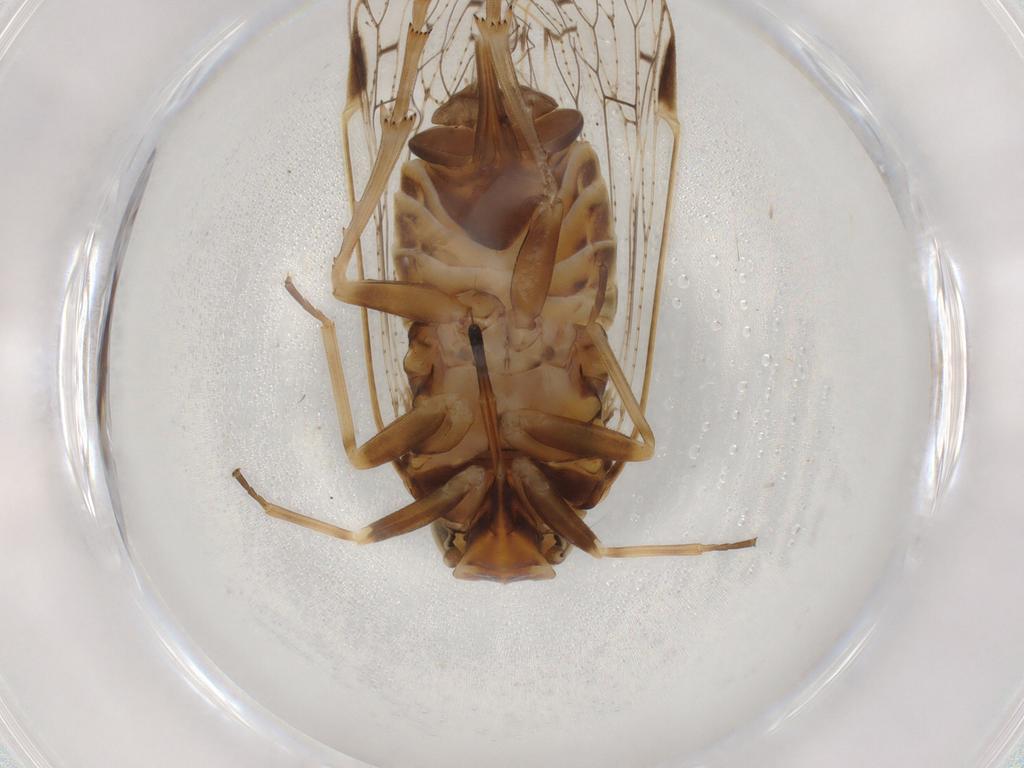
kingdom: Animalia
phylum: Arthropoda
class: Insecta
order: Hemiptera
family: Cixiidae
